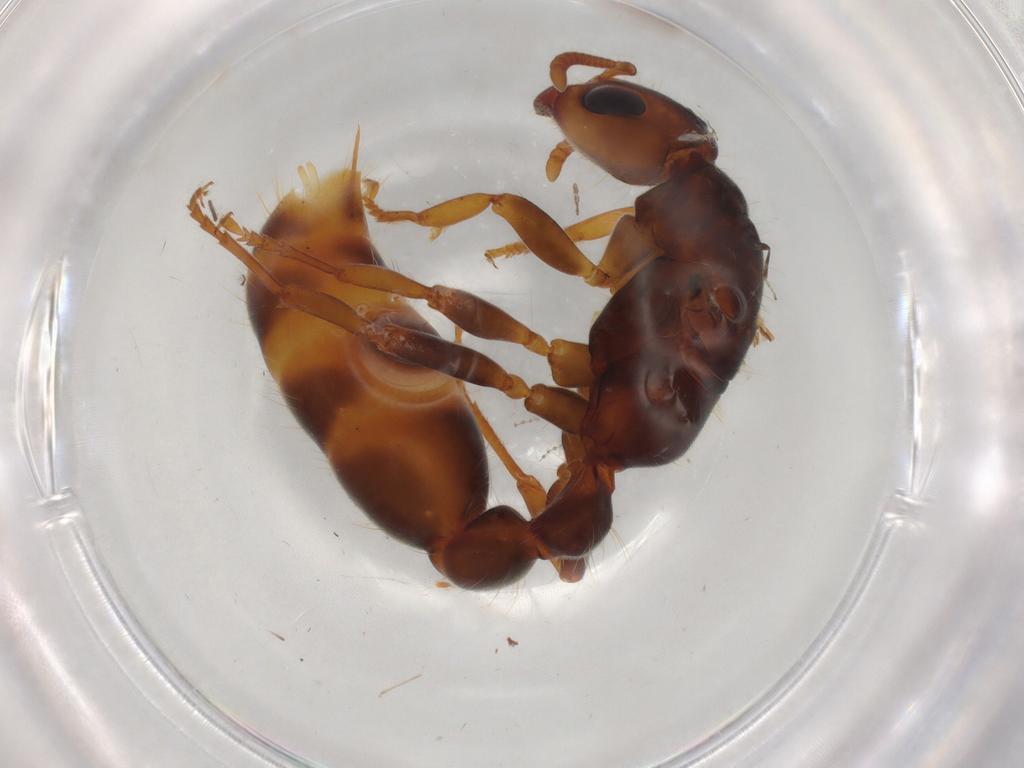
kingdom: Animalia
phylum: Arthropoda
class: Insecta
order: Hymenoptera
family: Formicidae
